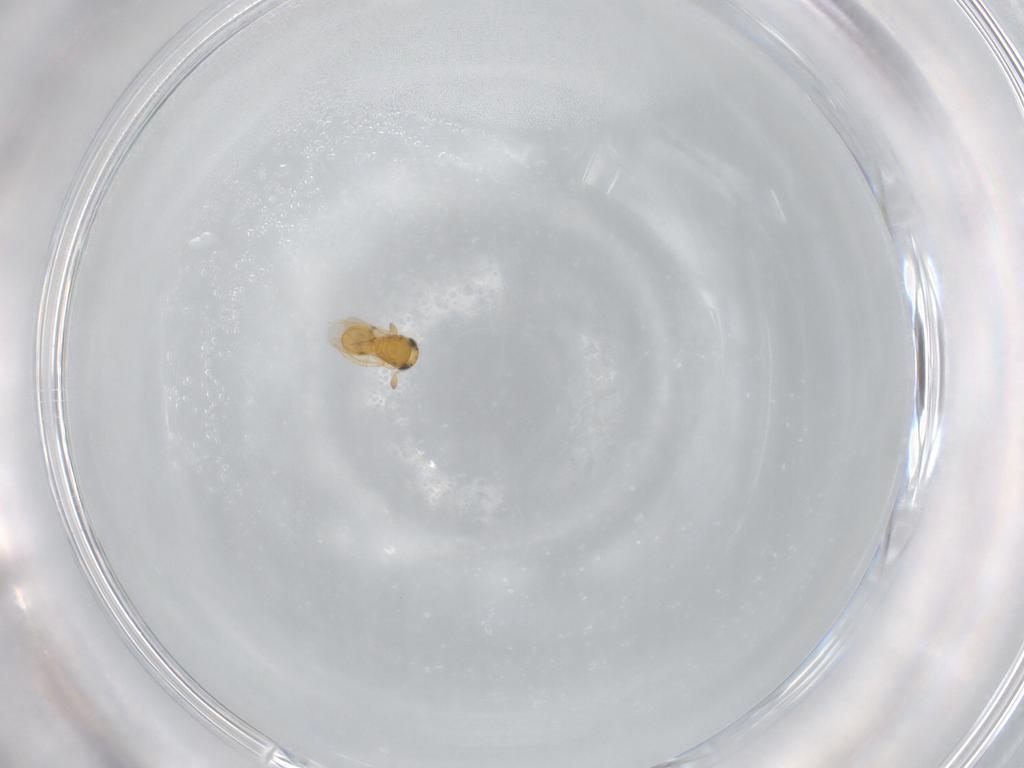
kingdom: Animalia
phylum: Arthropoda
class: Insecta
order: Hymenoptera
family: Scelionidae
